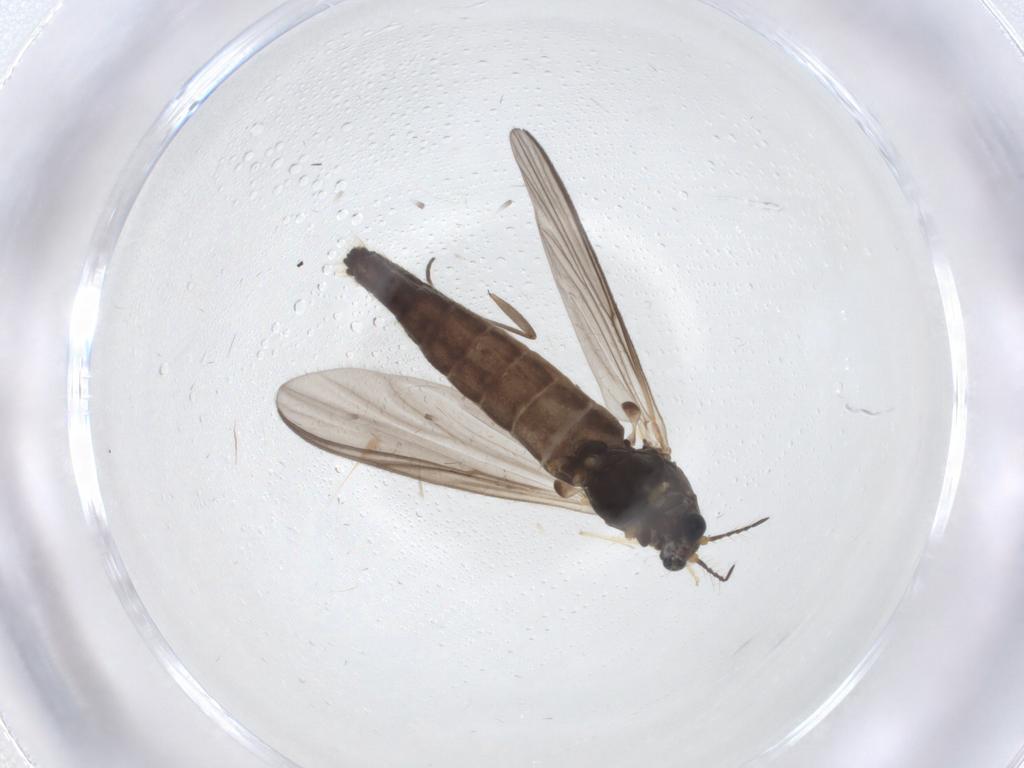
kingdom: Animalia
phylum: Arthropoda
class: Insecta
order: Diptera
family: Chironomidae
